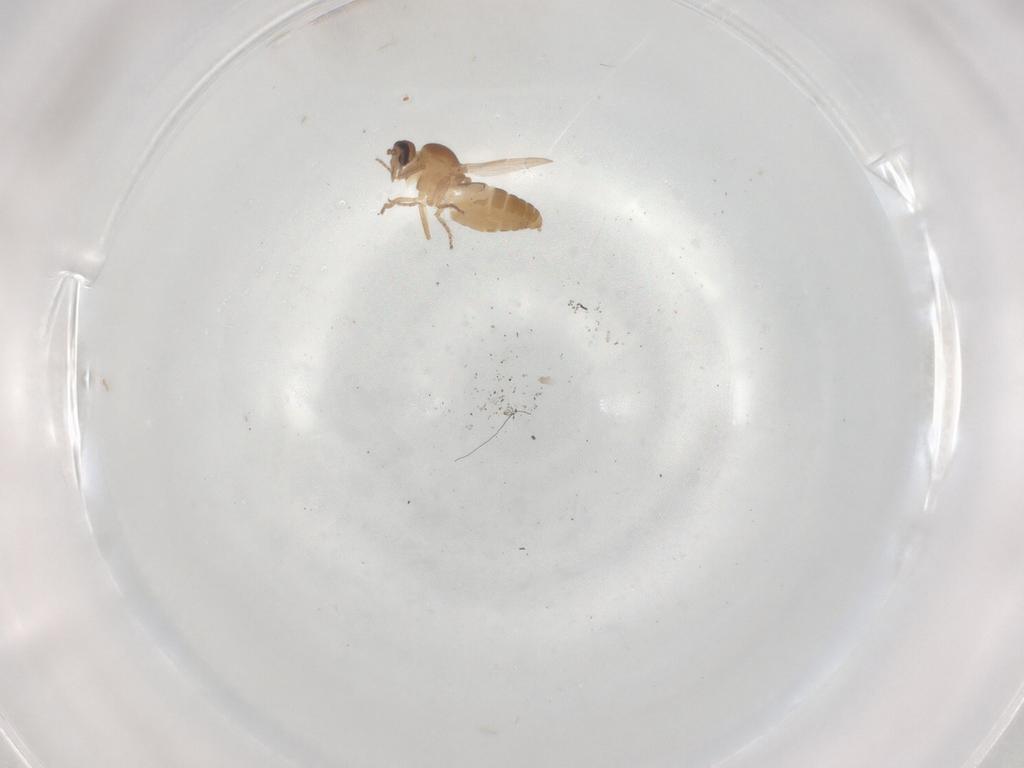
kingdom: Animalia
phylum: Arthropoda
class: Insecta
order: Diptera
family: Ceratopogonidae
